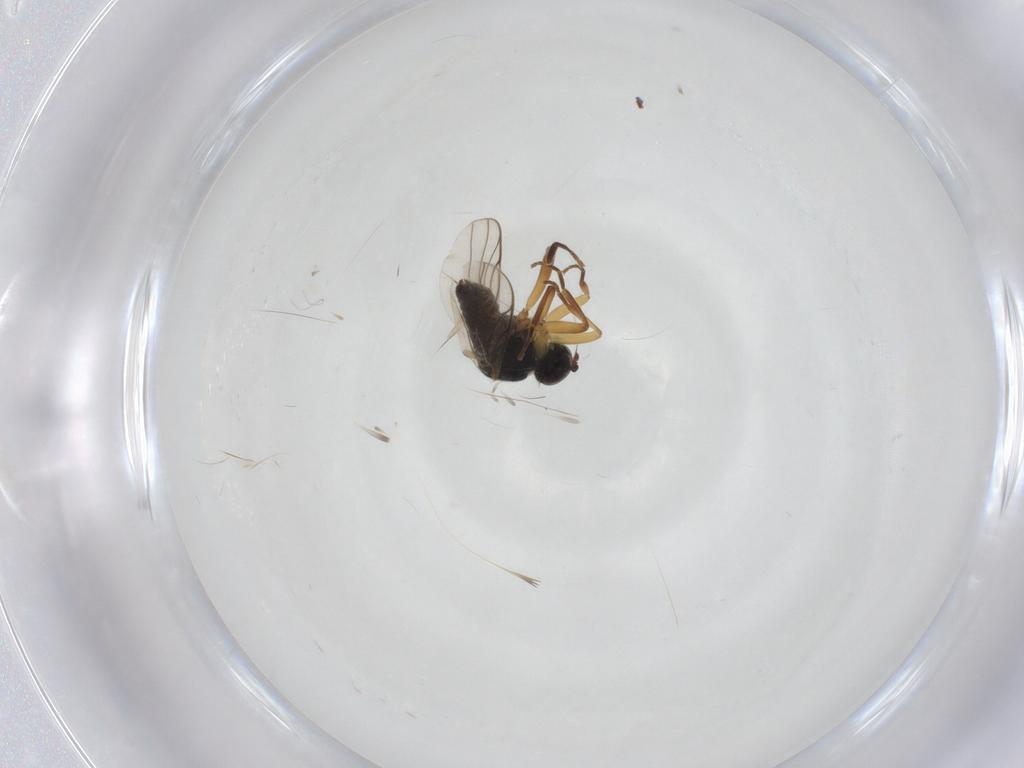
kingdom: Animalia
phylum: Arthropoda
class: Insecta
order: Diptera
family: Hybotidae
